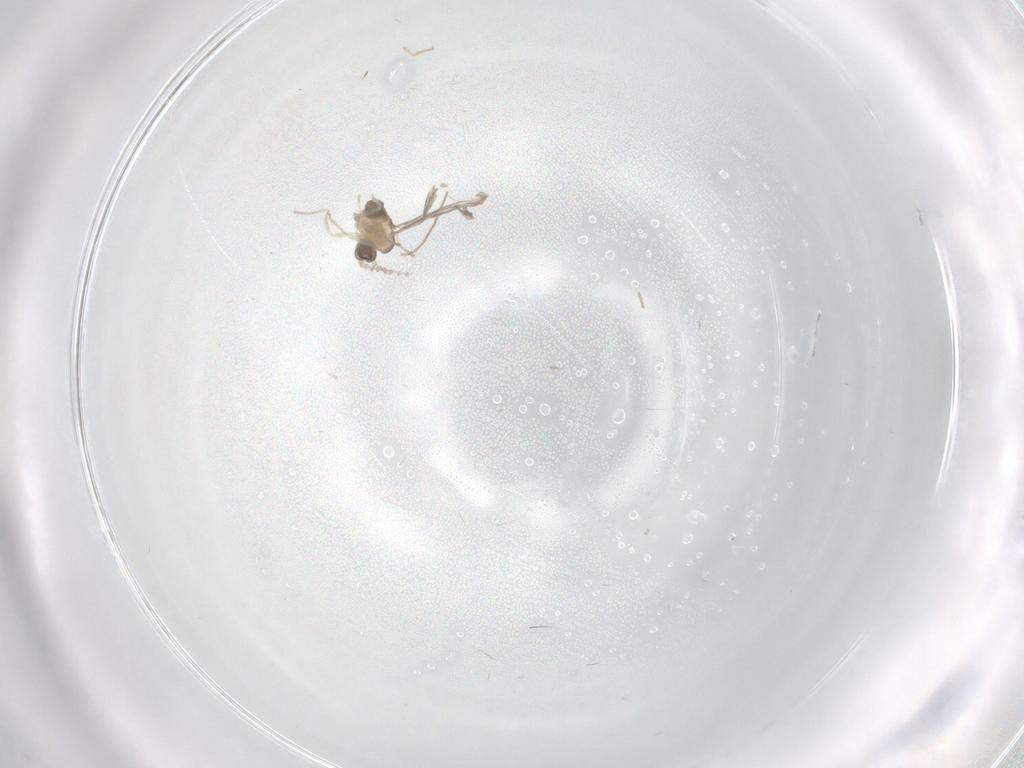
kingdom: Animalia
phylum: Arthropoda
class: Insecta
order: Diptera
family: Cecidomyiidae
